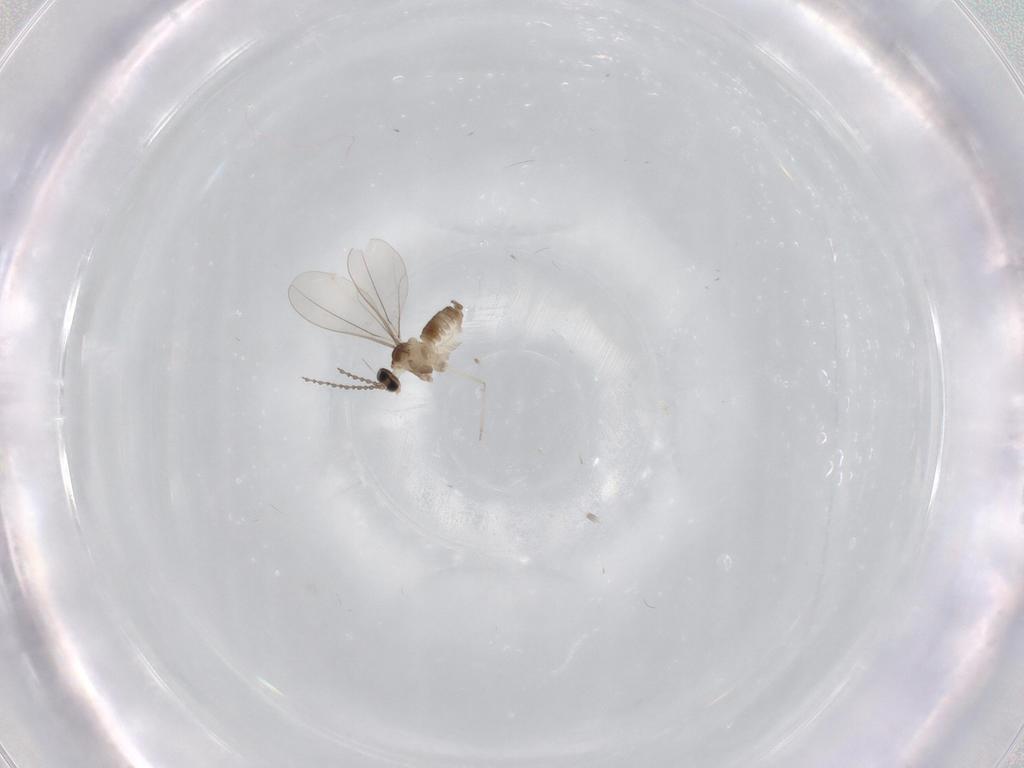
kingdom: Animalia
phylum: Arthropoda
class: Insecta
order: Diptera
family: Cecidomyiidae
